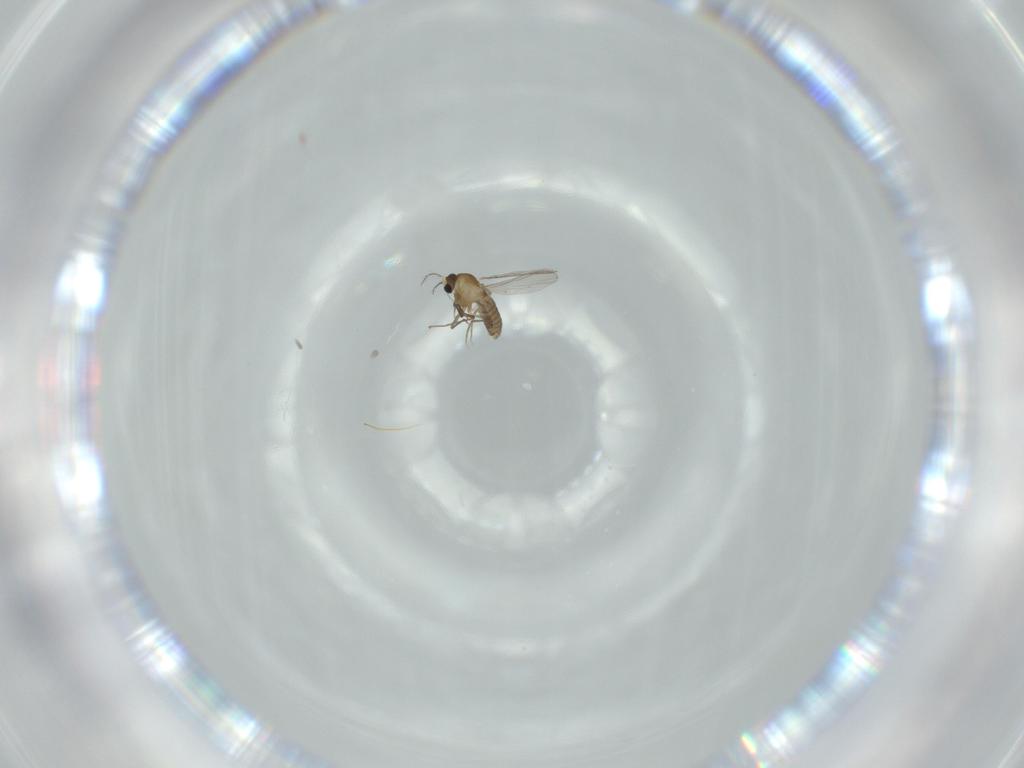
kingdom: Animalia
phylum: Arthropoda
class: Insecta
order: Diptera
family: Chironomidae
